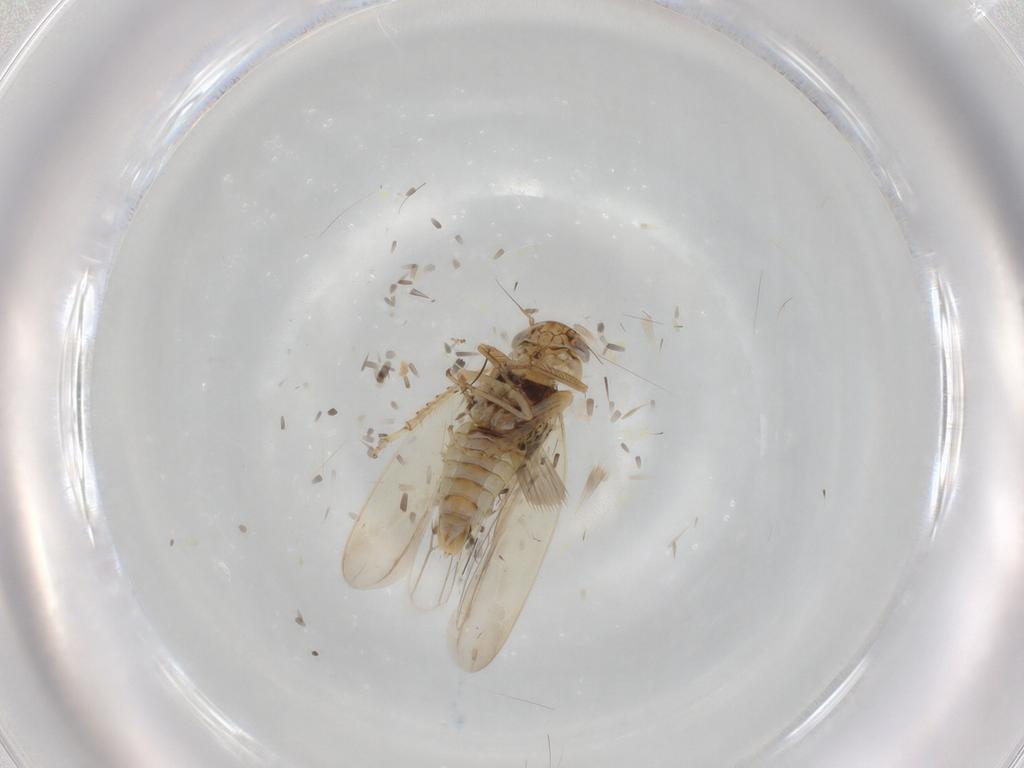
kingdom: Animalia
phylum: Arthropoda
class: Insecta
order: Hemiptera
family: Cicadellidae
